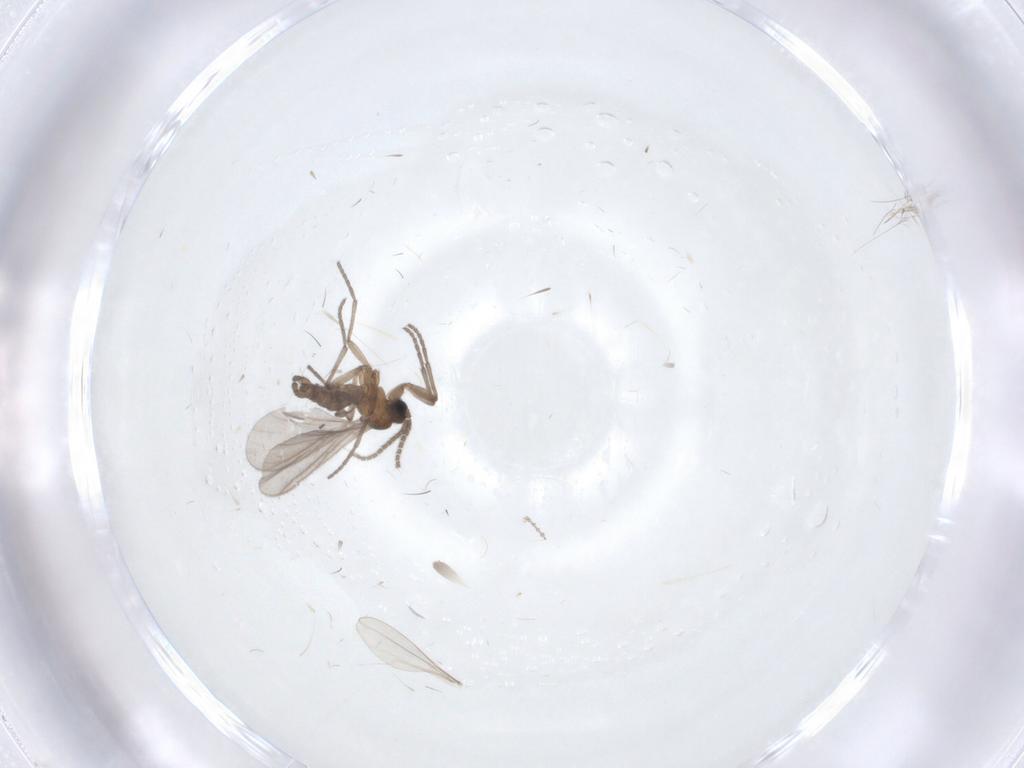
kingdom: Animalia
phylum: Arthropoda
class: Insecta
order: Diptera
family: Sciaridae
